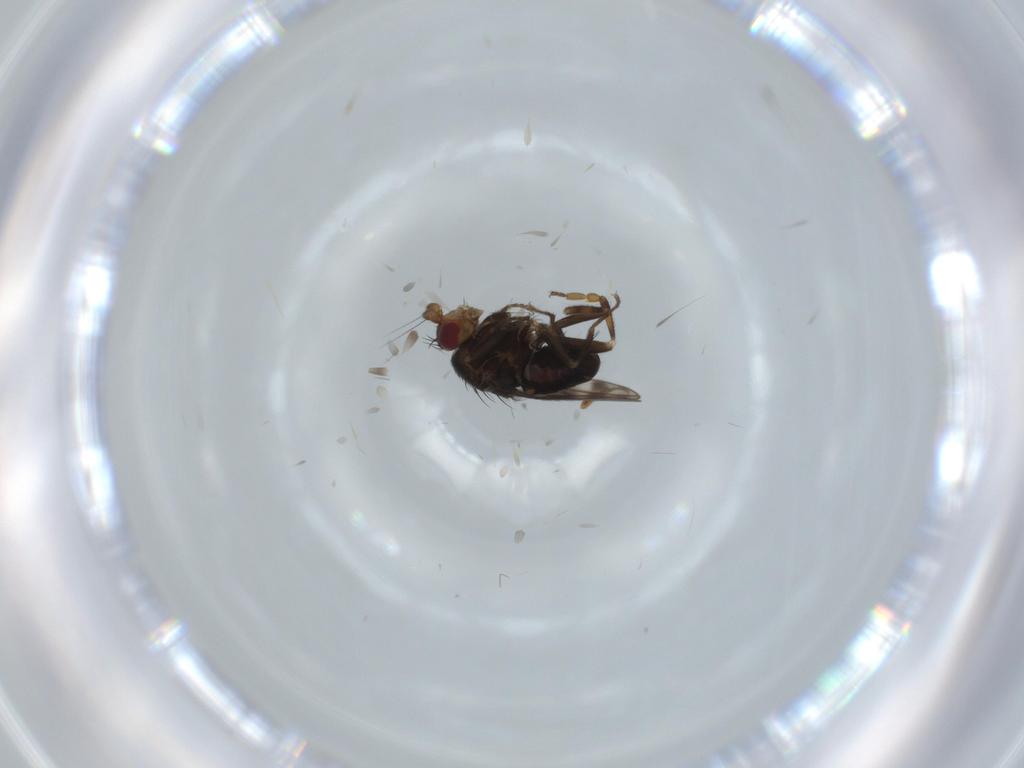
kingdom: Animalia
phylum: Arthropoda
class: Insecta
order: Diptera
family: Sphaeroceridae
